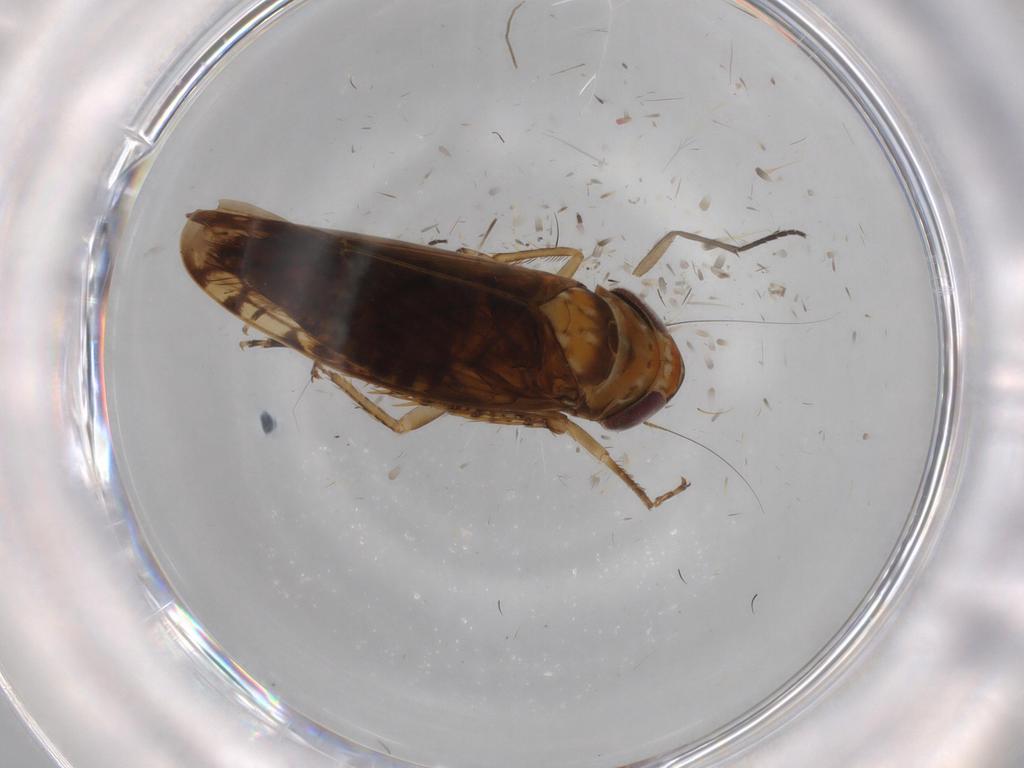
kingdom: Animalia
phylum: Arthropoda
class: Insecta
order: Hemiptera
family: Cicadellidae
